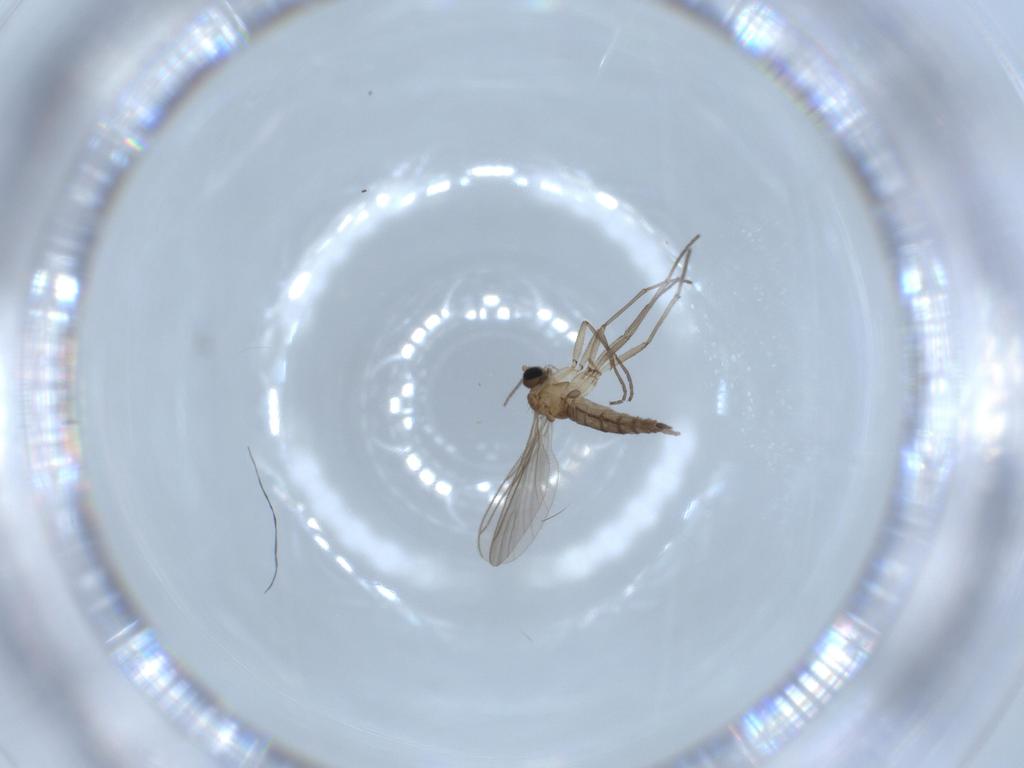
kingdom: Animalia
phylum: Arthropoda
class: Insecta
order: Diptera
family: Sciaridae
